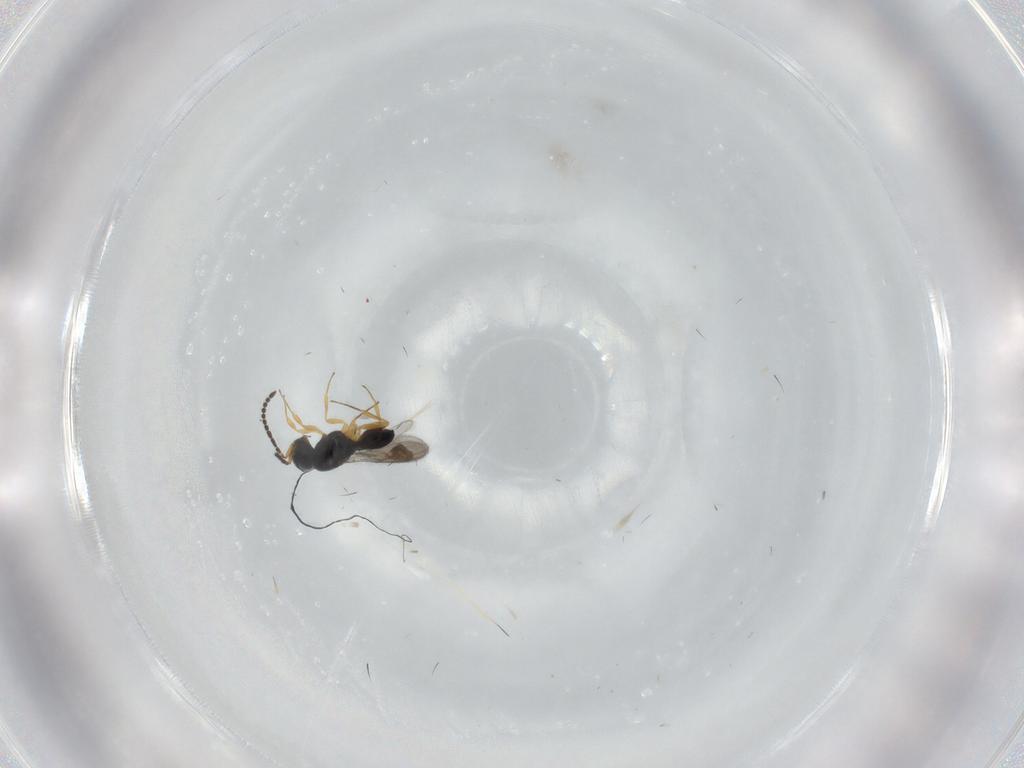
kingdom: Animalia
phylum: Arthropoda
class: Insecta
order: Hymenoptera
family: Scelionidae
